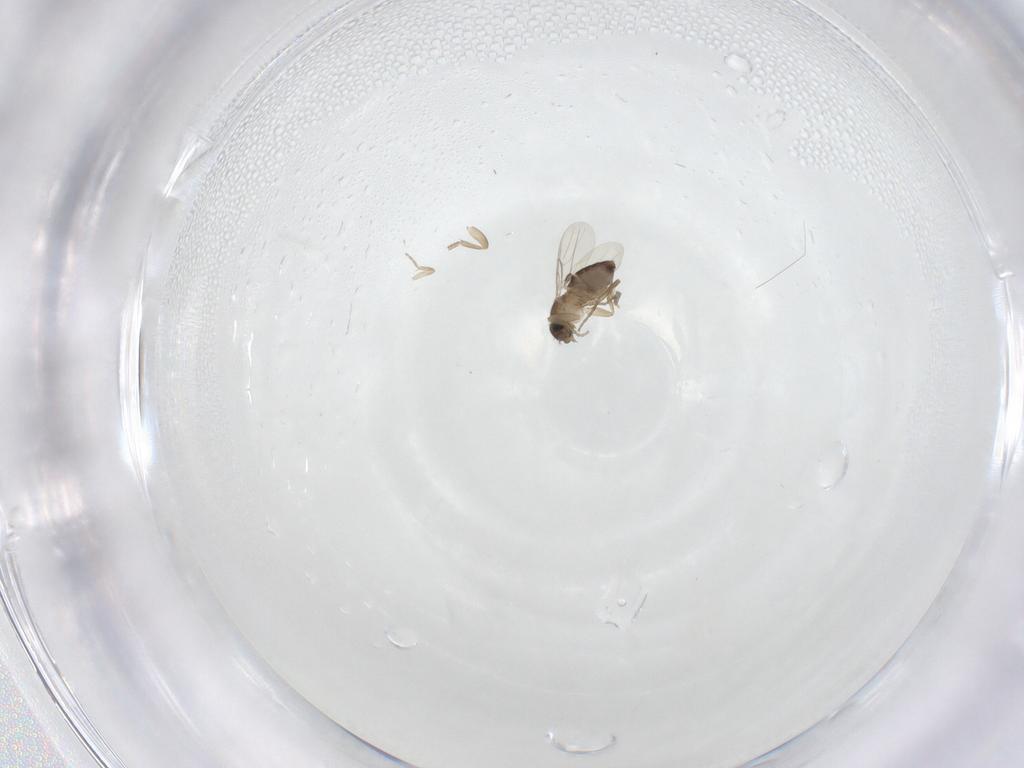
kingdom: Animalia
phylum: Arthropoda
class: Insecta
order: Diptera
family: Phoridae
